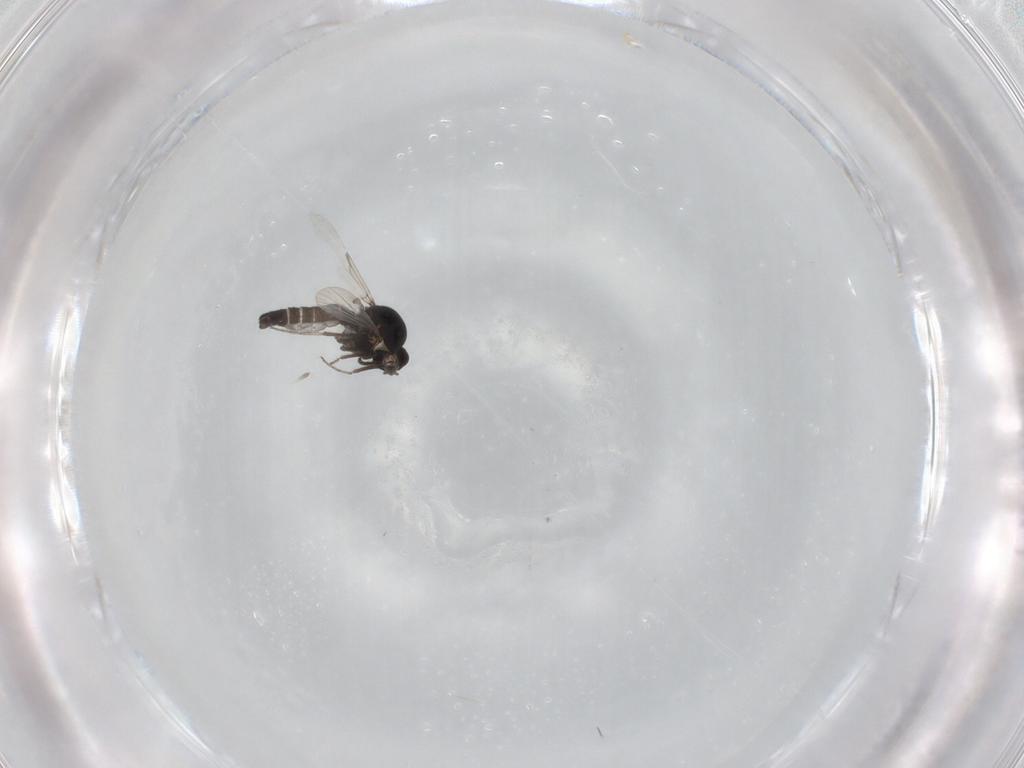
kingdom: Animalia
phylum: Arthropoda
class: Insecta
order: Diptera
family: Ceratopogonidae
